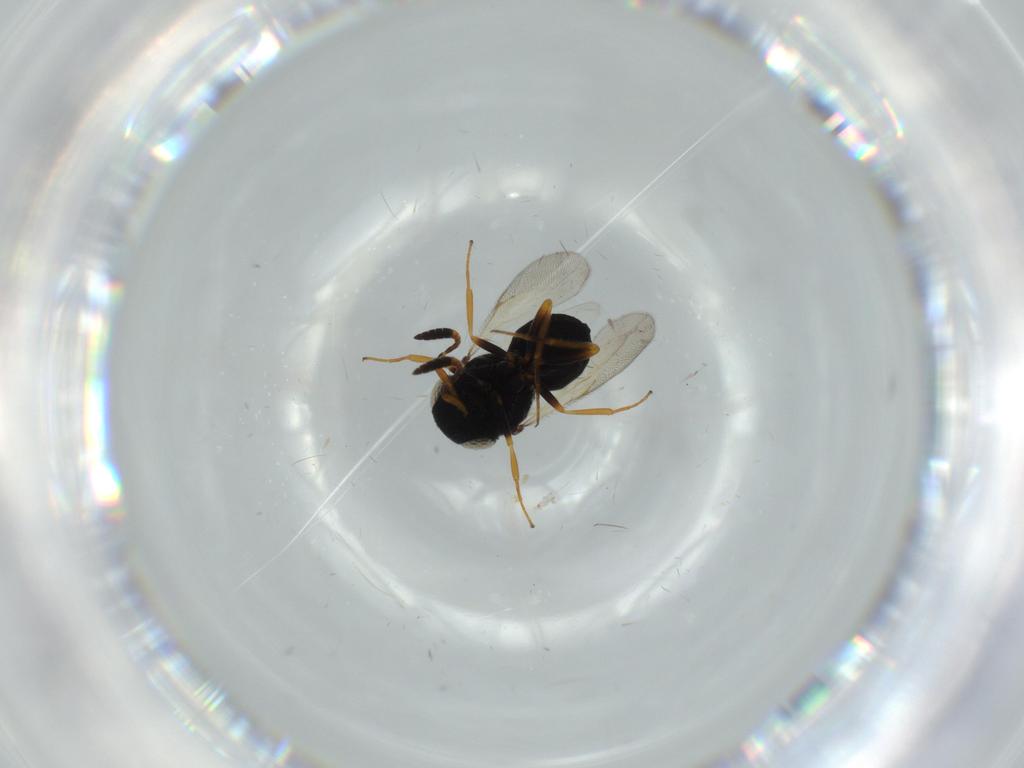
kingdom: Animalia
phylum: Arthropoda
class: Insecta
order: Hymenoptera
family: Scelionidae
